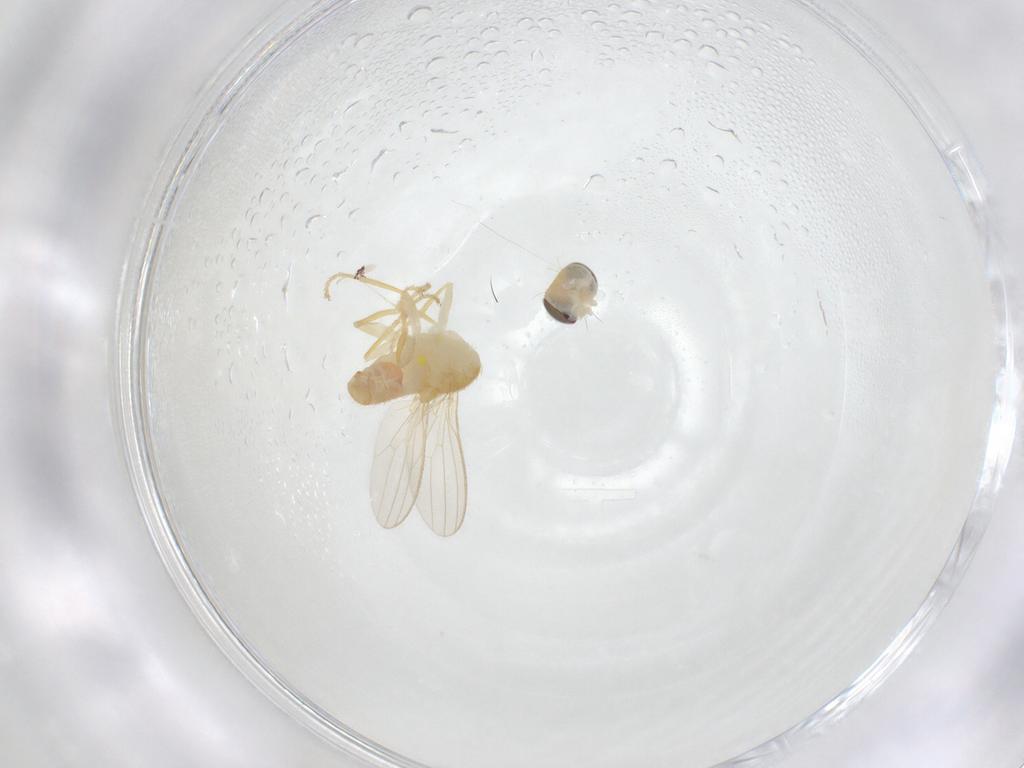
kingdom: Animalia
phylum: Arthropoda
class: Insecta
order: Diptera
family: Chyromyidae
